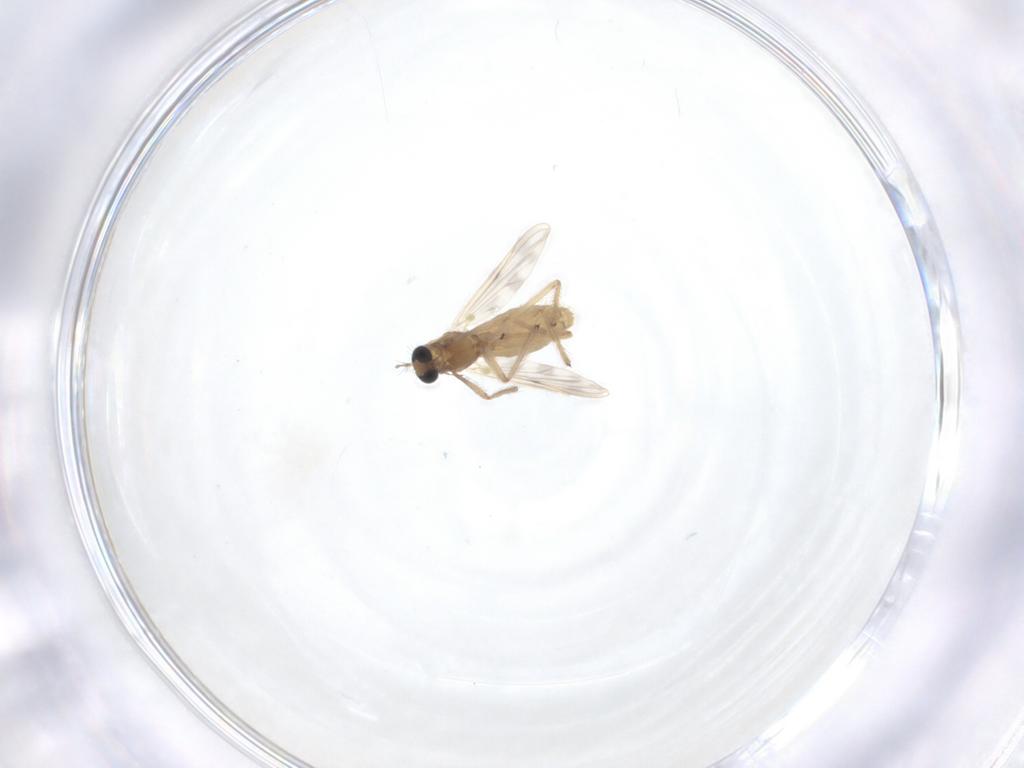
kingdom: Animalia
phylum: Arthropoda
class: Insecta
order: Diptera
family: Chironomidae
